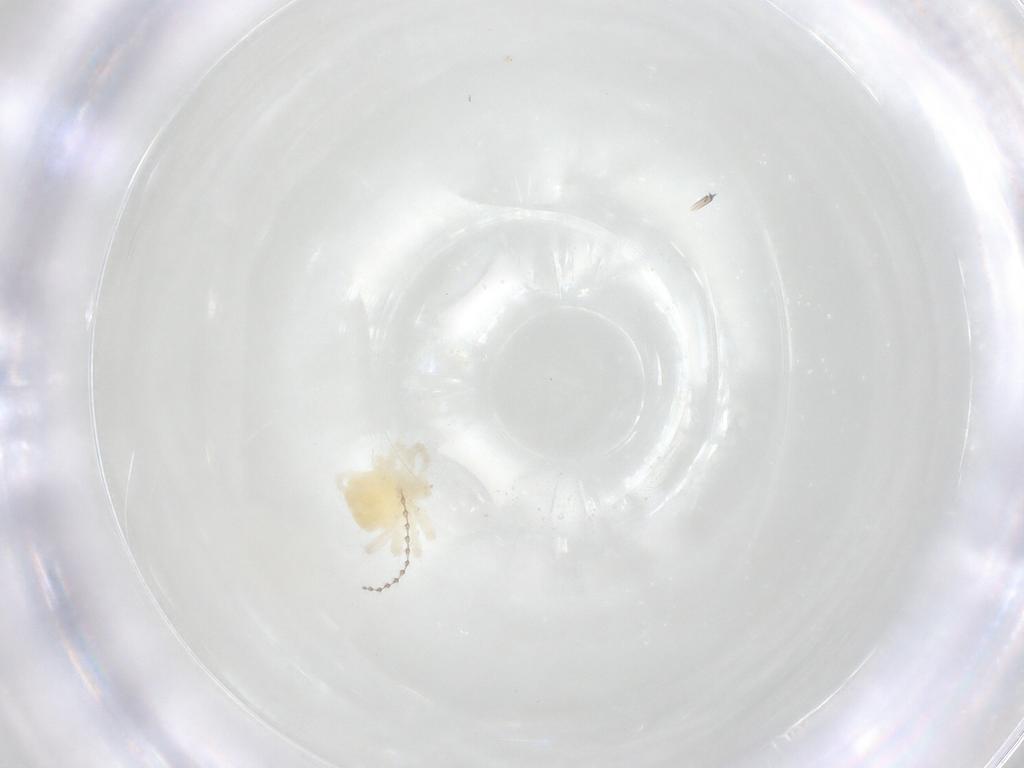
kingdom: Animalia
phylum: Arthropoda
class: Arachnida
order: Trombidiformes
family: Anystidae
